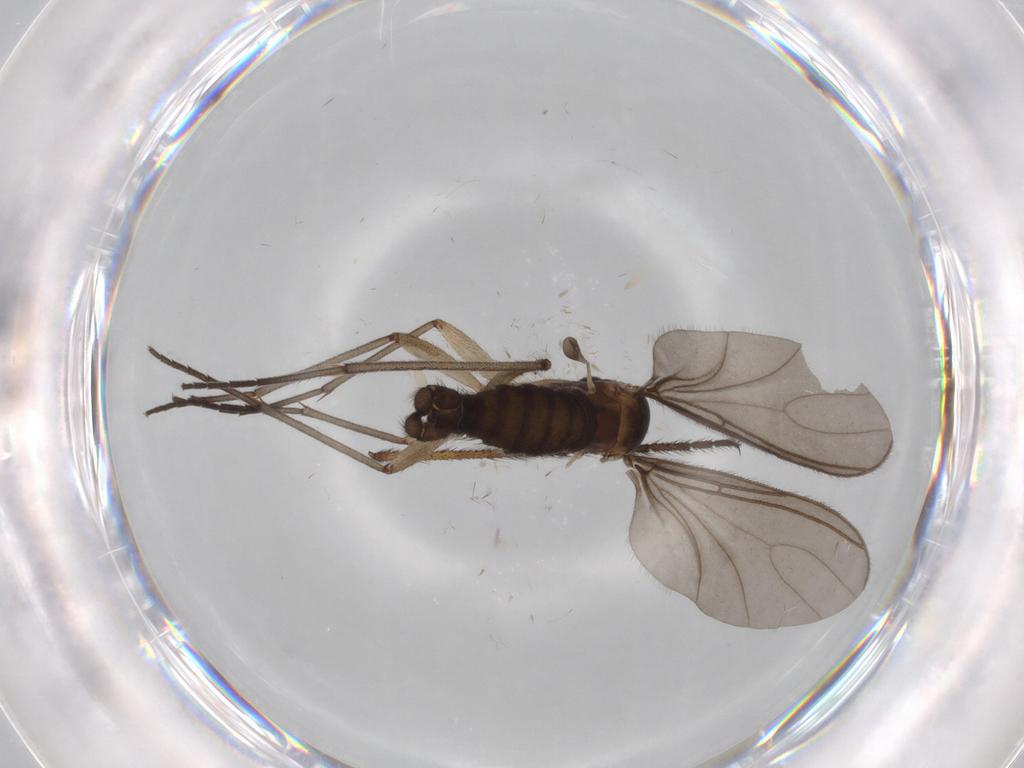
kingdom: Animalia
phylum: Arthropoda
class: Insecta
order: Diptera
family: Sciaridae
